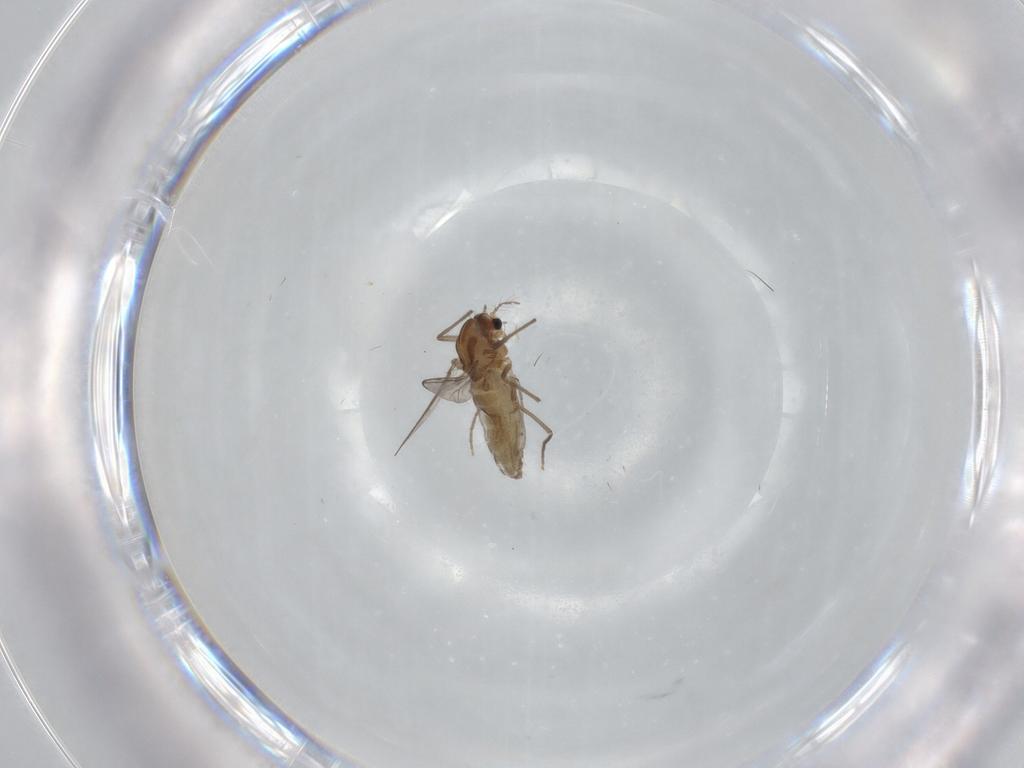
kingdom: Animalia
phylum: Arthropoda
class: Insecta
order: Diptera
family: Chironomidae
